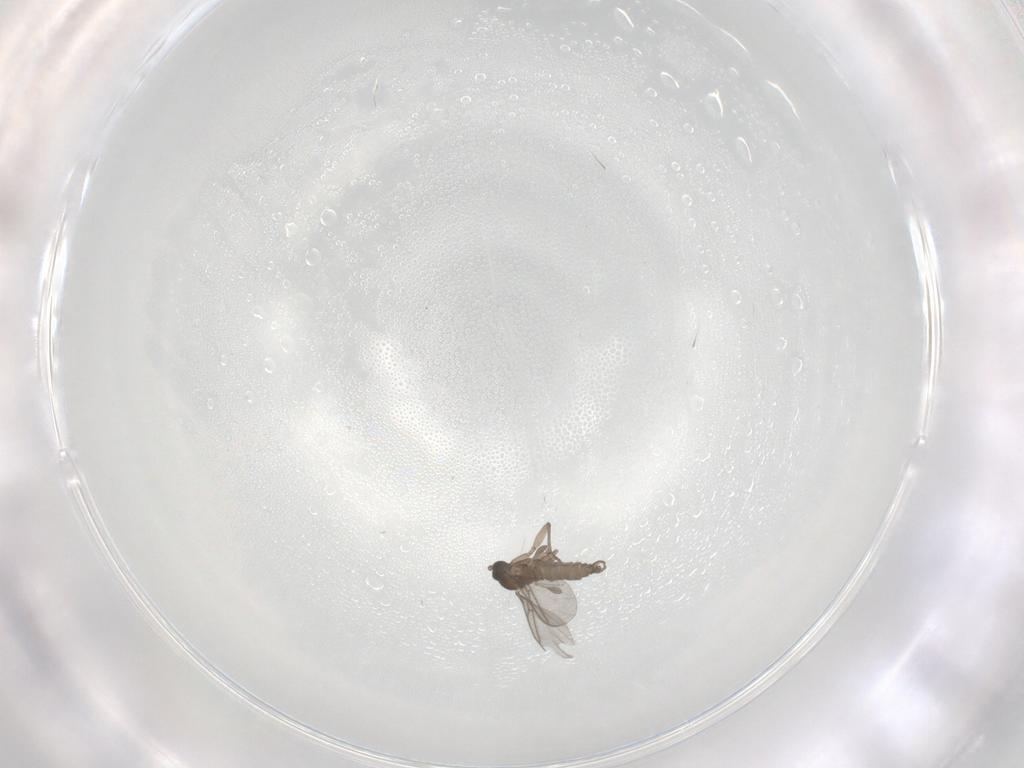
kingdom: Animalia
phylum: Arthropoda
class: Insecta
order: Diptera
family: Sciaridae
